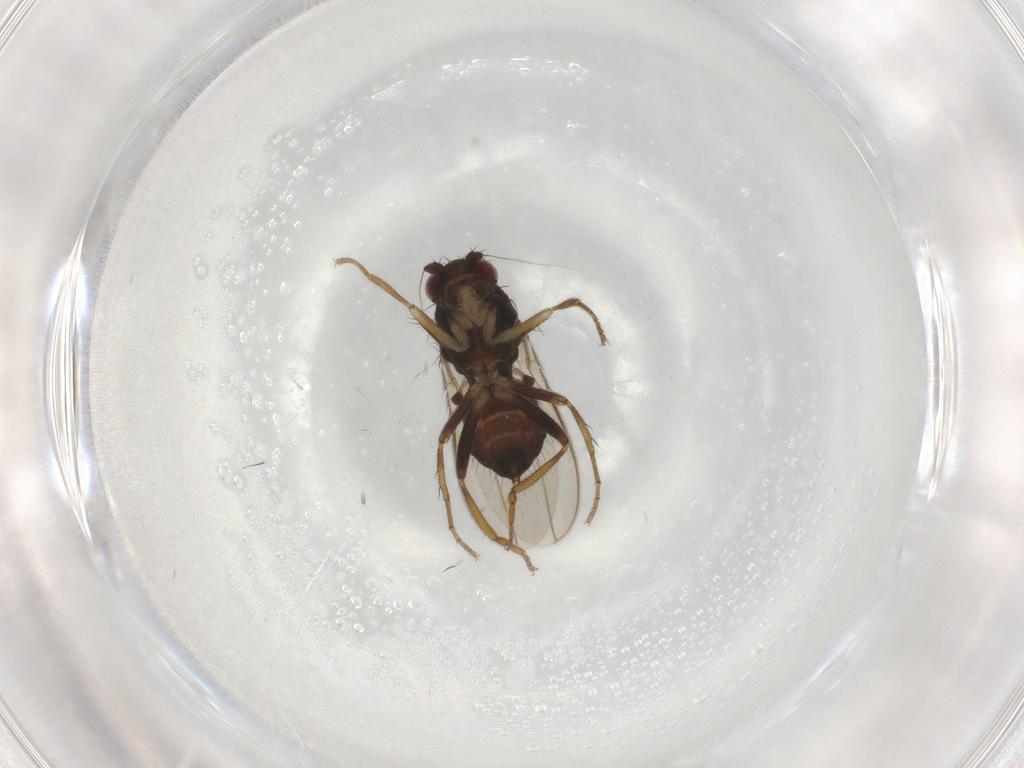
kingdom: Animalia
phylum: Arthropoda
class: Insecta
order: Diptera
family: Sphaeroceridae
